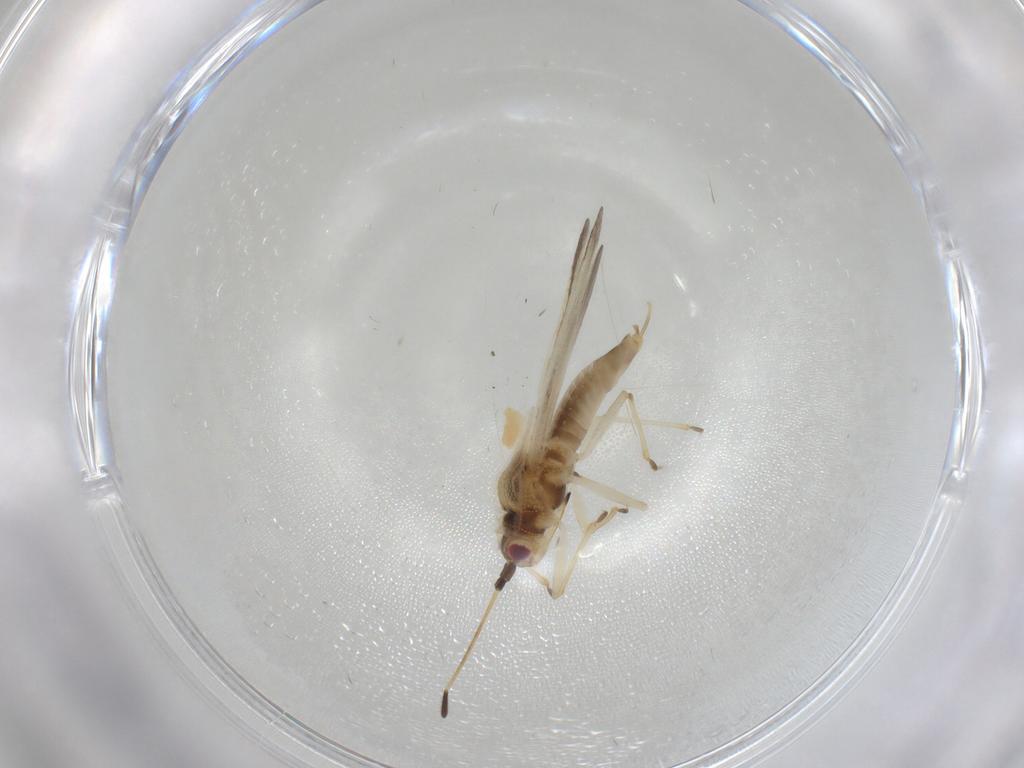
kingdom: Animalia
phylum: Arthropoda
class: Insecta
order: Hemiptera
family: Tingidae
